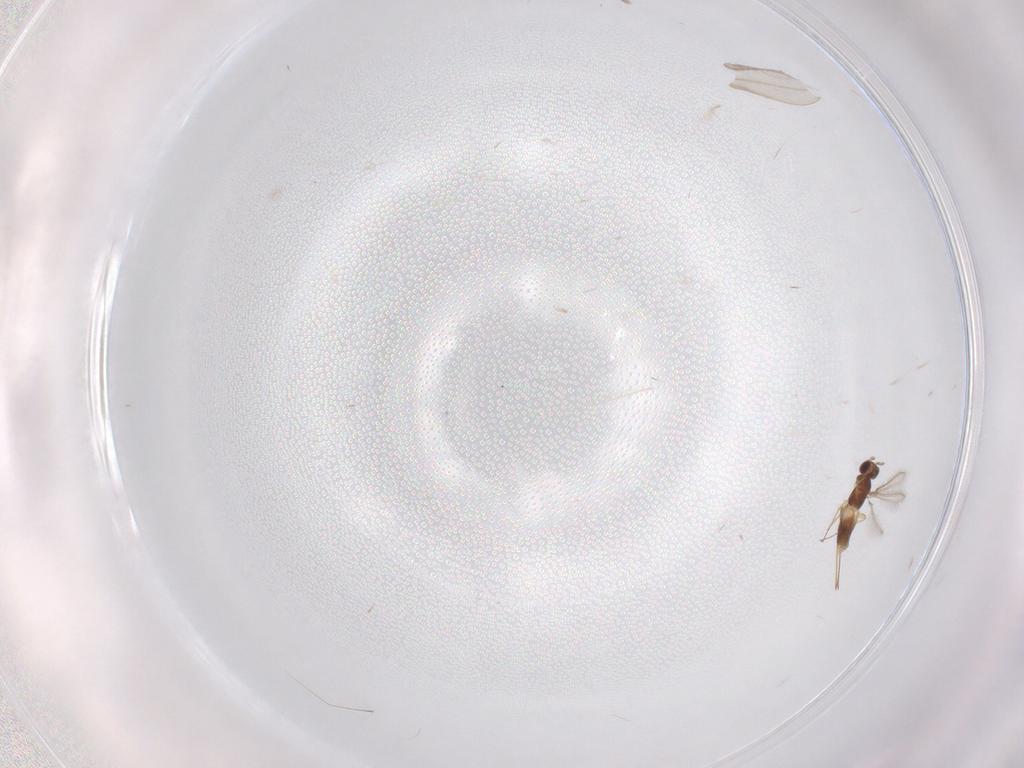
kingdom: Animalia
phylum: Arthropoda
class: Insecta
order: Hymenoptera
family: Mymaridae
